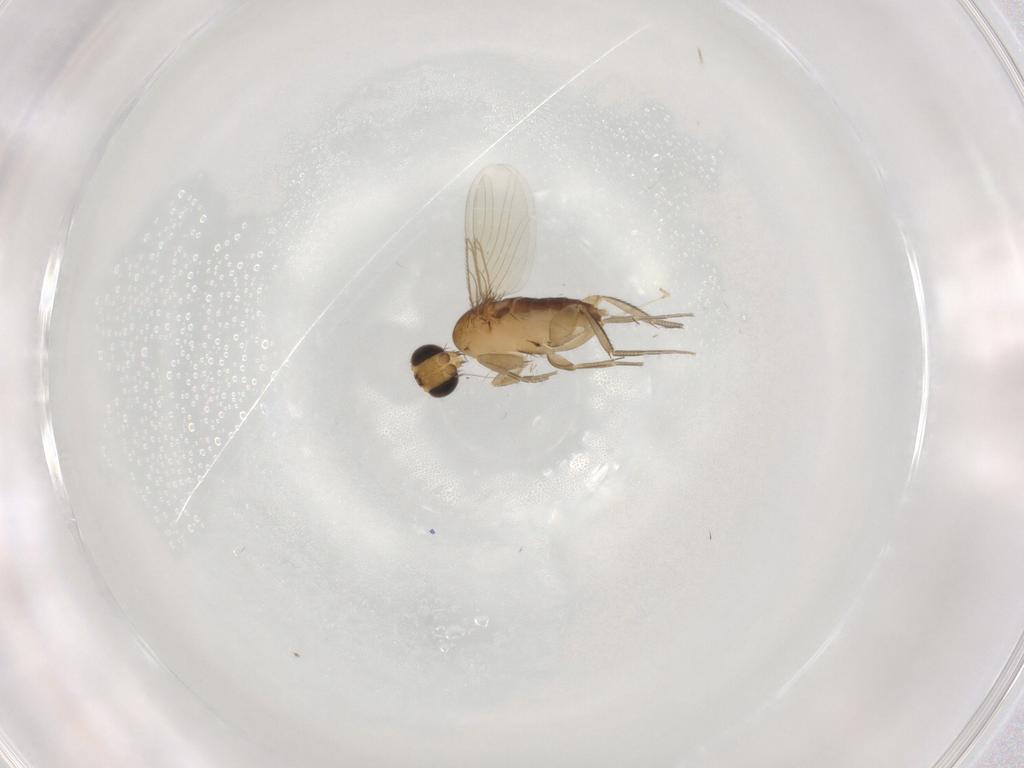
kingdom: Animalia
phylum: Arthropoda
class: Insecta
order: Diptera
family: Phoridae
